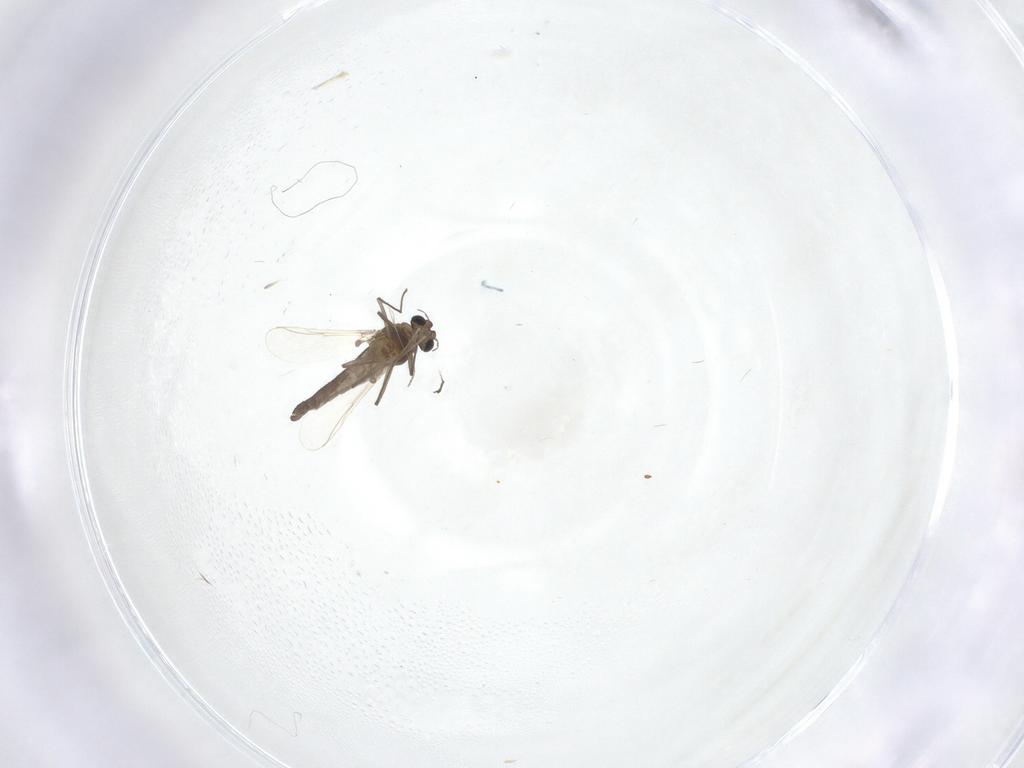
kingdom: Animalia
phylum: Arthropoda
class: Insecta
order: Diptera
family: Chironomidae
